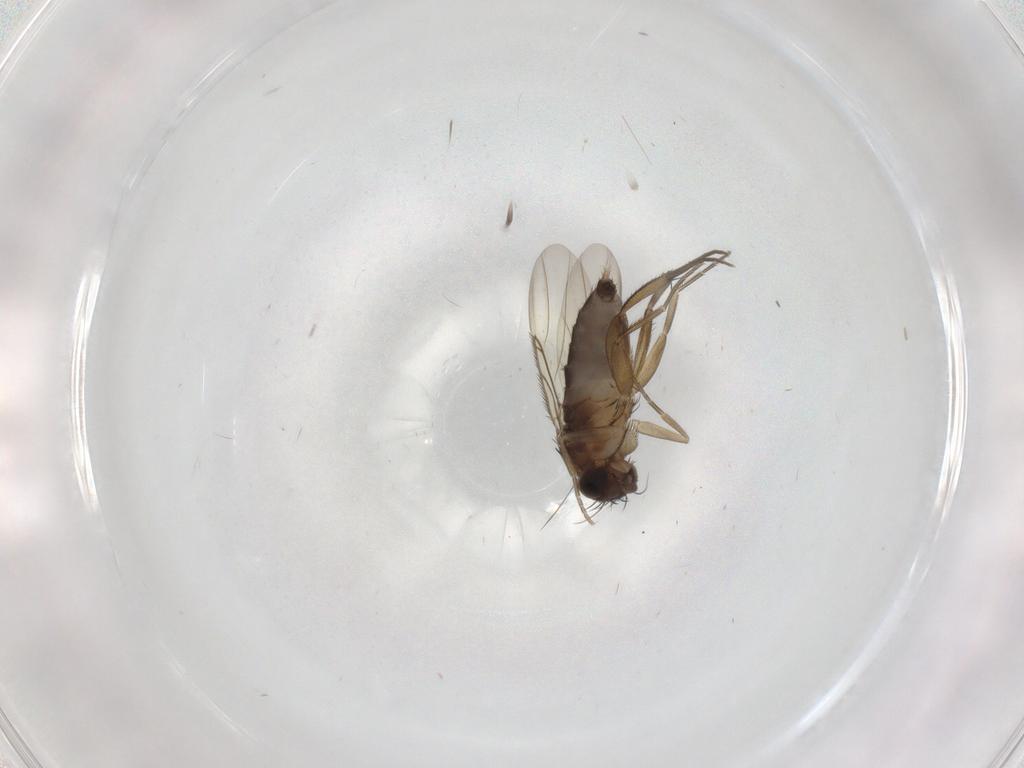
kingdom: Animalia
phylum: Arthropoda
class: Insecta
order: Diptera
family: Phoridae
